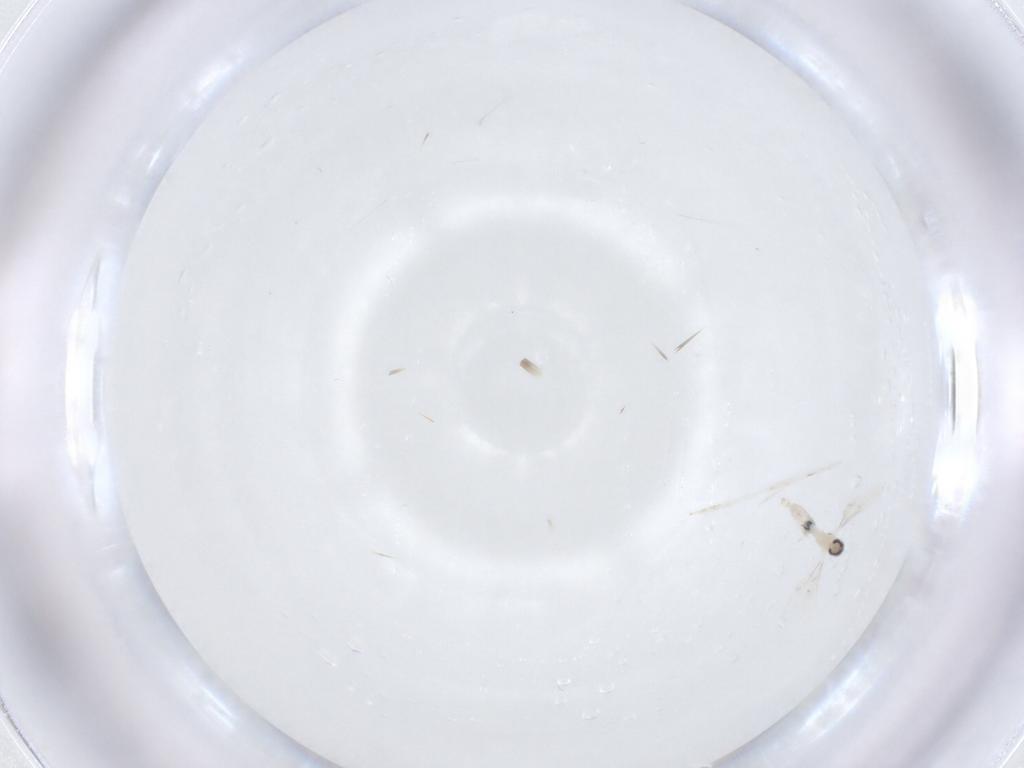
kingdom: Animalia
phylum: Arthropoda
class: Insecta
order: Diptera
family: Cecidomyiidae
